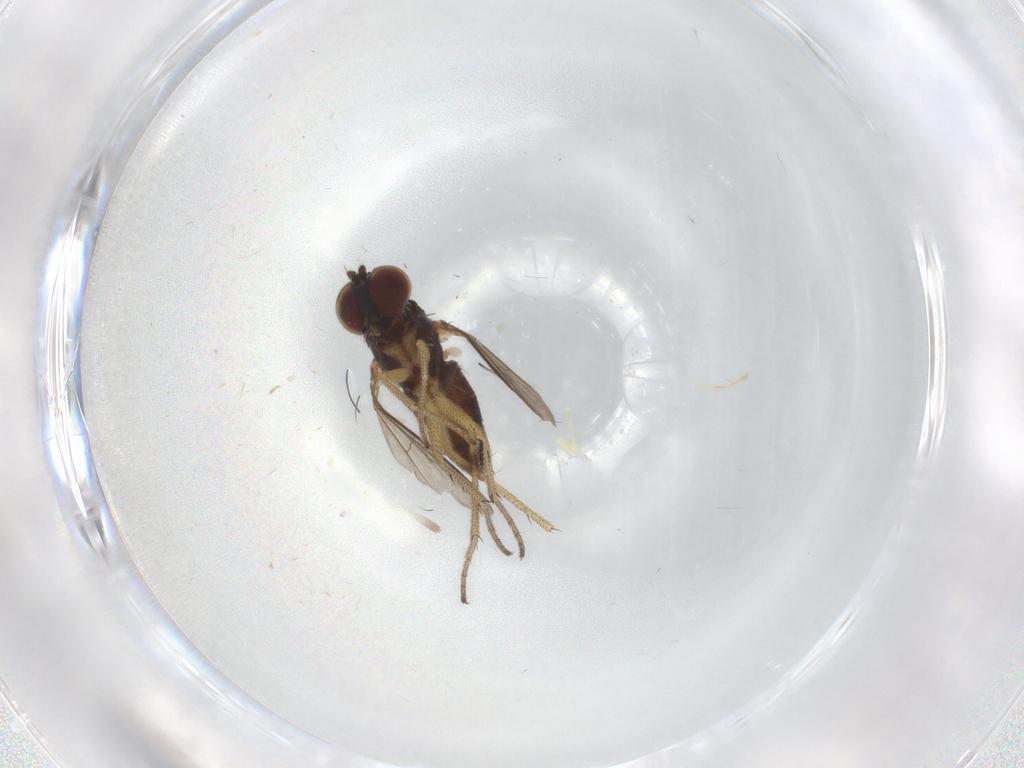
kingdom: Animalia
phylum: Arthropoda
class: Insecta
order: Diptera
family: Dolichopodidae
